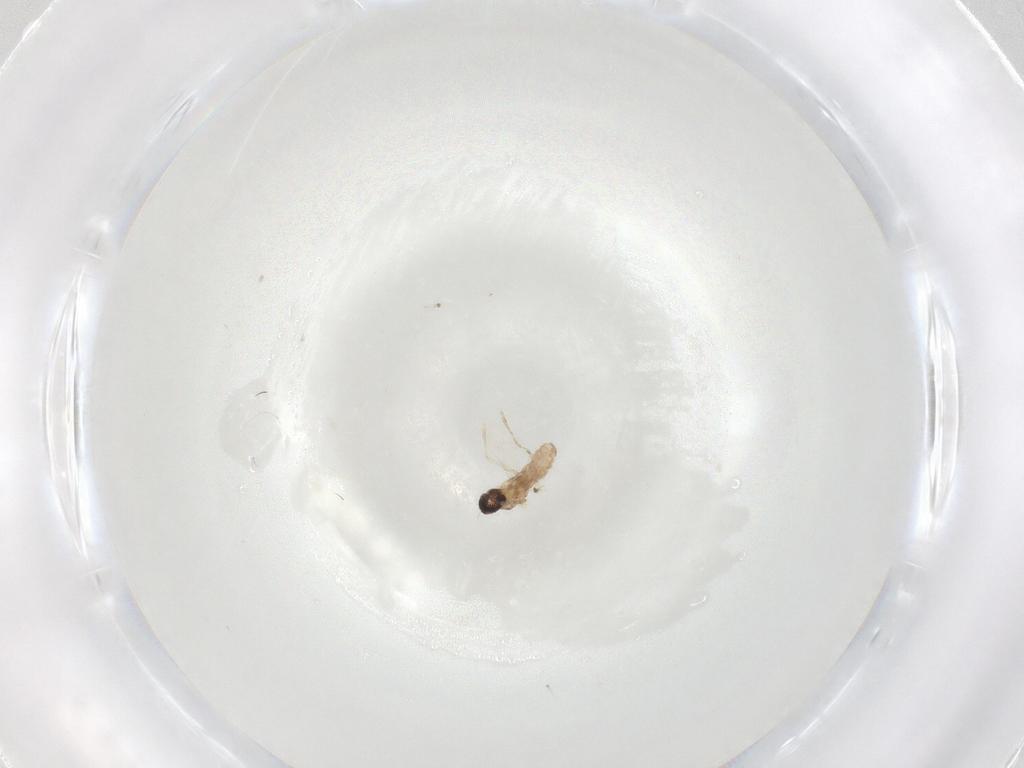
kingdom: Animalia
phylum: Arthropoda
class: Insecta
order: Diptera
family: Cecidomyiidae
